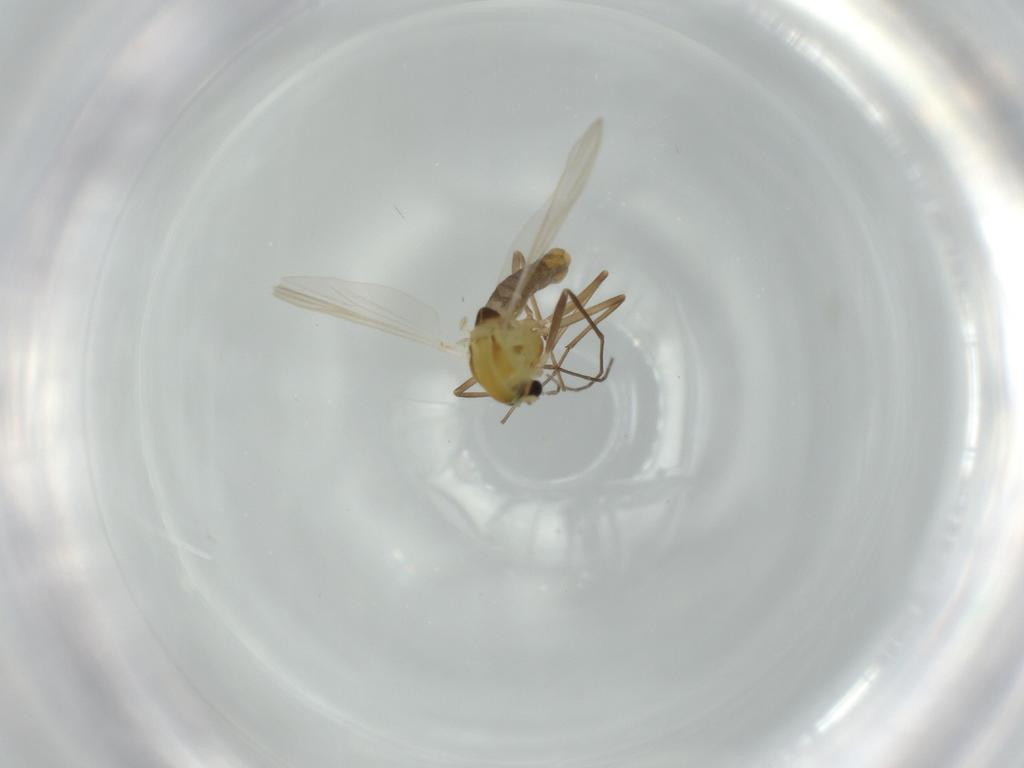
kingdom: Animalia
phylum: Arthropoda
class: Insecta
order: Diptera
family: Chironomidae
